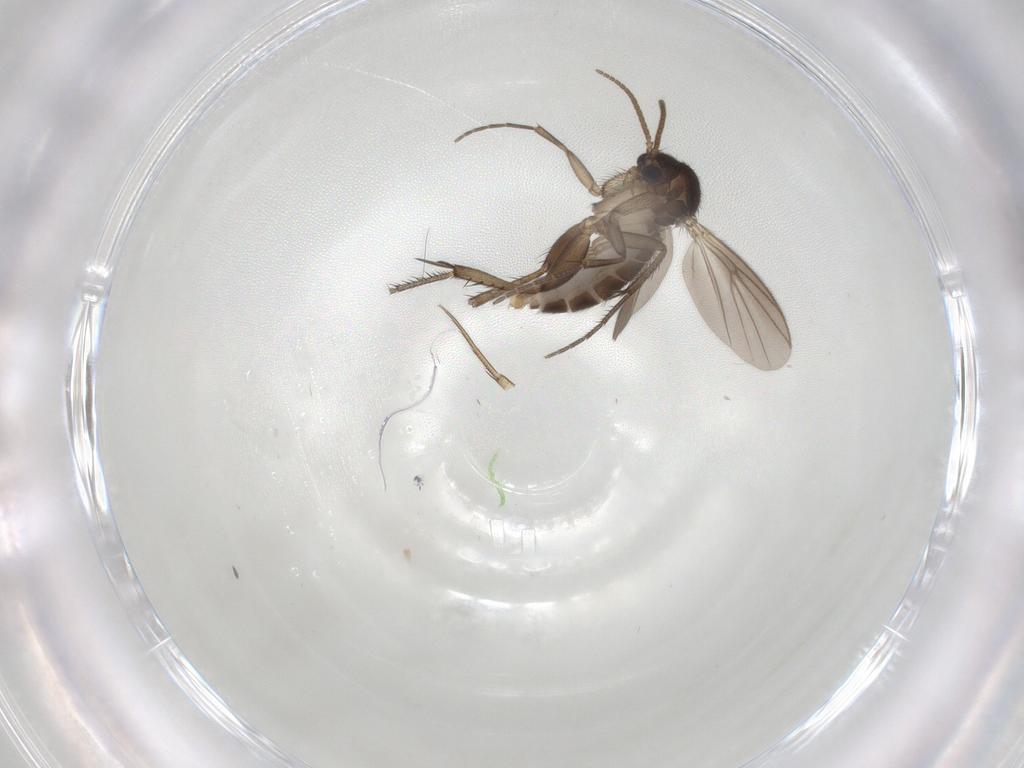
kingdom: Animalia
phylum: Arthropoda
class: Insecta
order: Diptera
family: Phoridae
